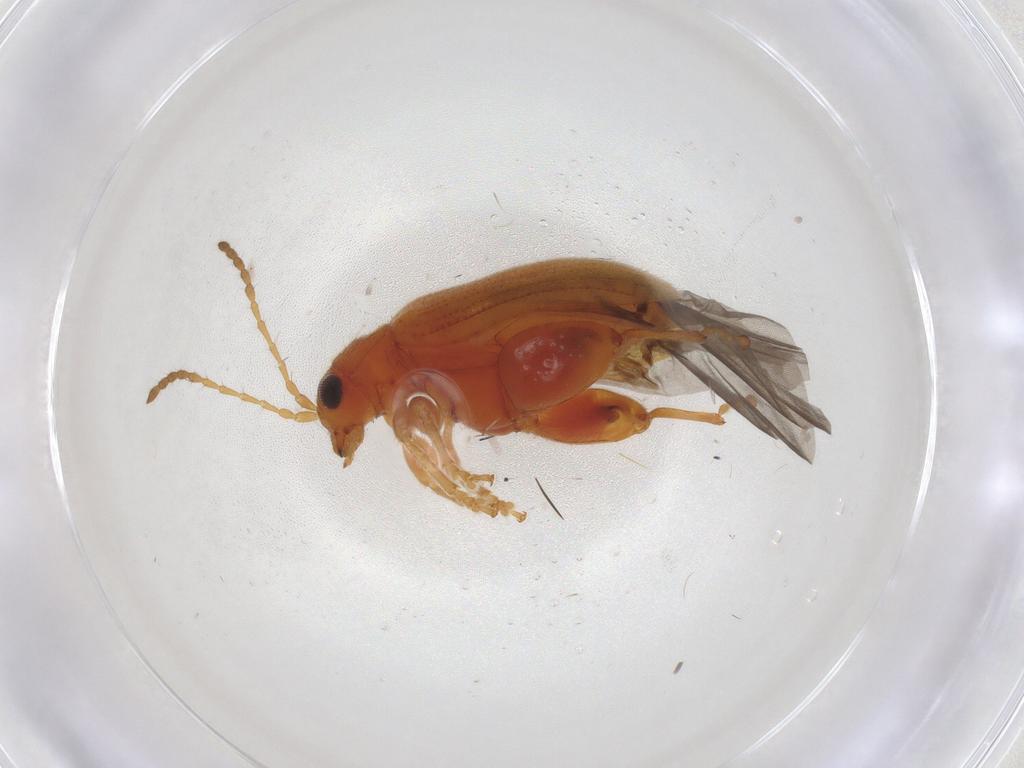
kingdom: Animalia
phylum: Arthropoda
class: Insecta
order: Coleoptera
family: Chrysomelidae
